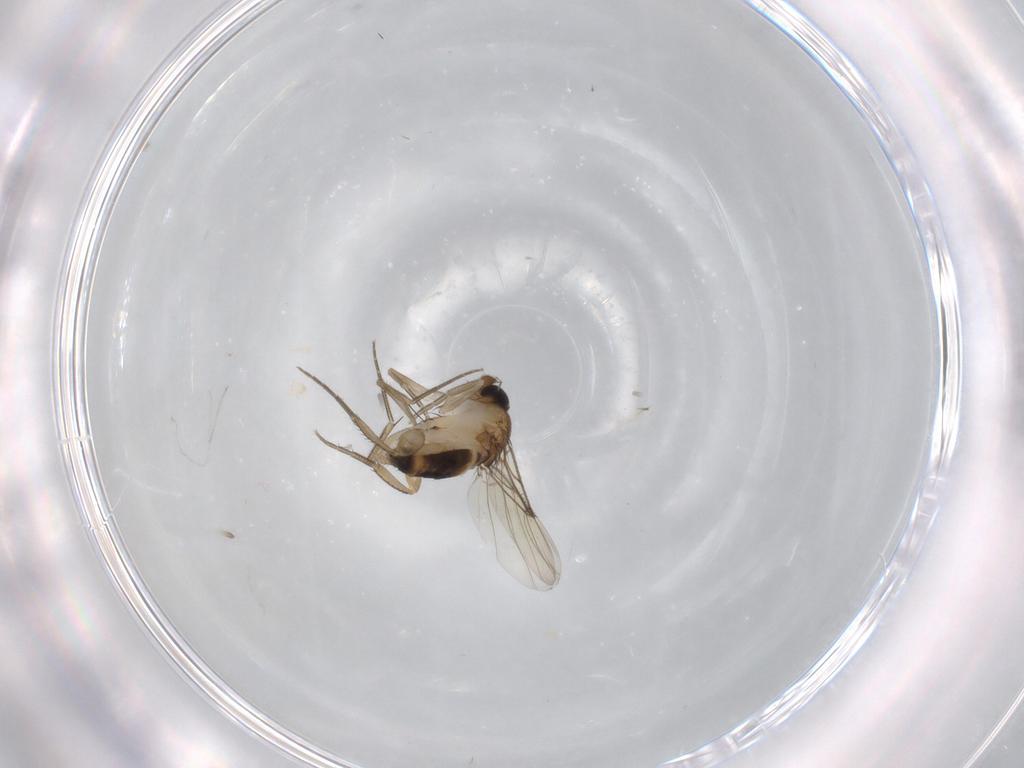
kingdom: Animalia
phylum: Arthropoda
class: Insecta
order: Diptera
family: Phoridae
